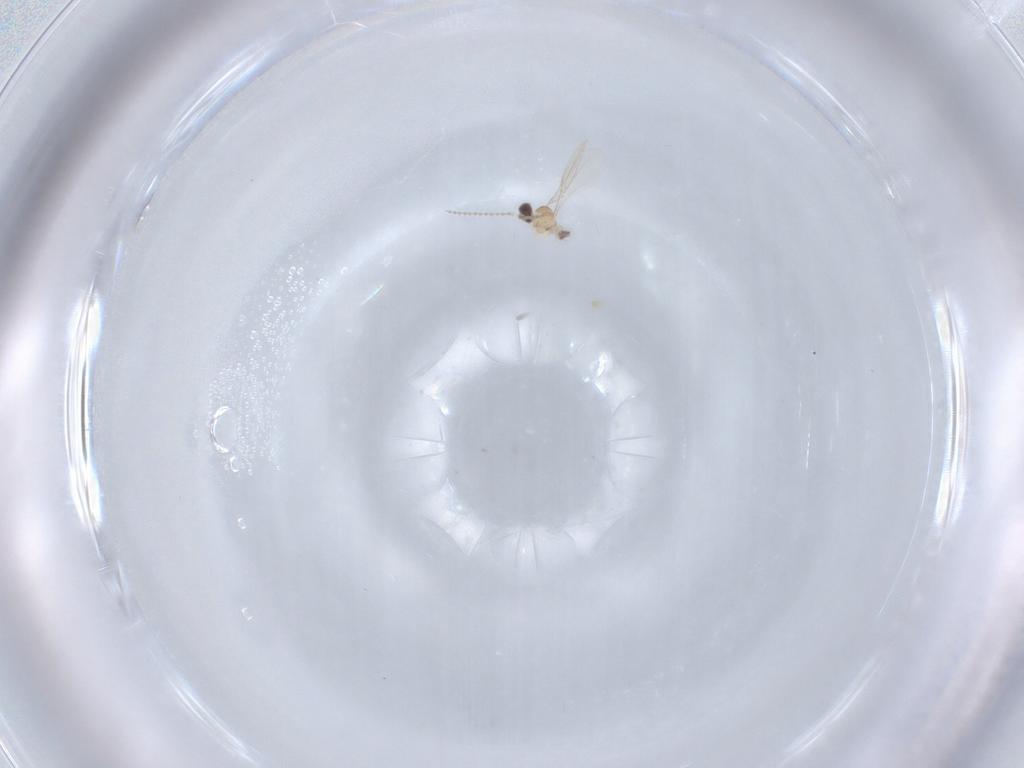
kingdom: Animalia
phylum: Arthropoda
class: Insecta
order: Diptera
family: Cecidomyiidae
